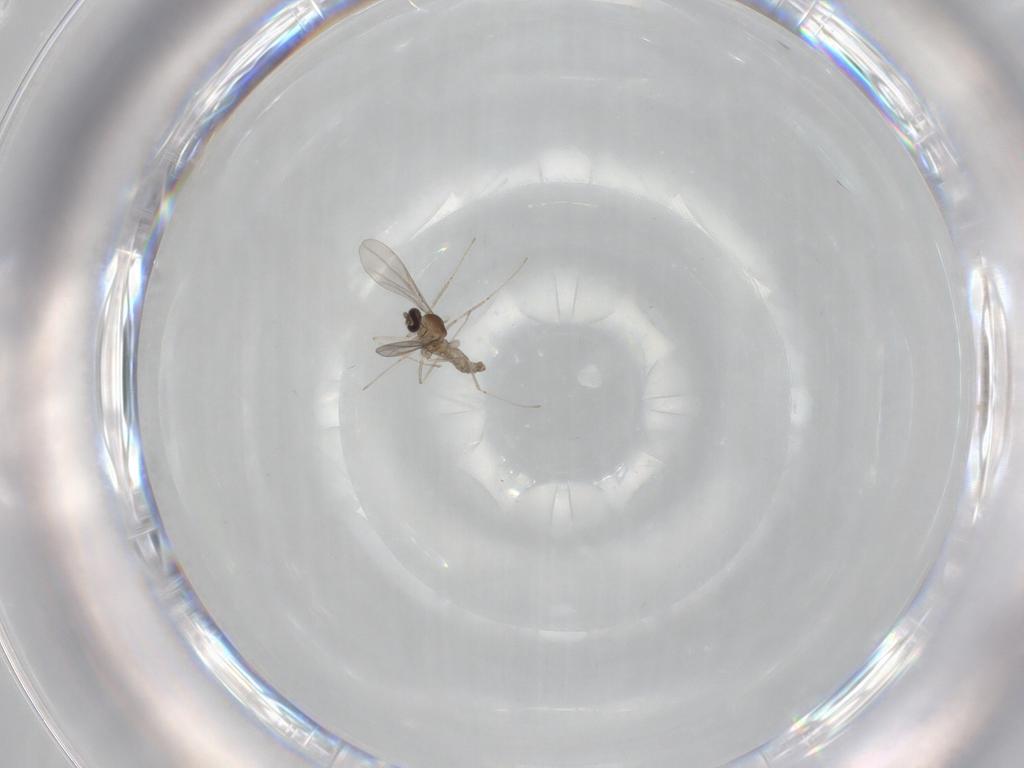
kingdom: Animalia
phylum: Arthropoda
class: Insecta
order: Diptera
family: Cecidomyiidae
